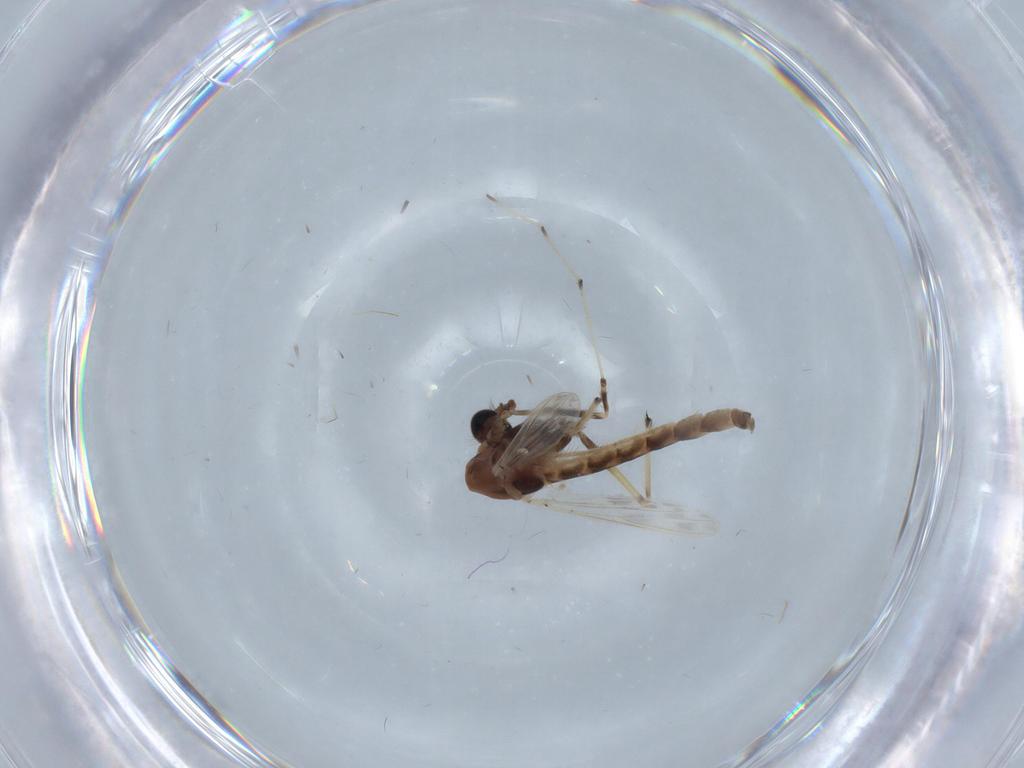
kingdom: Animalia
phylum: Arthropoda
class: Insecta
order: Diptera
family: Chironomidae
